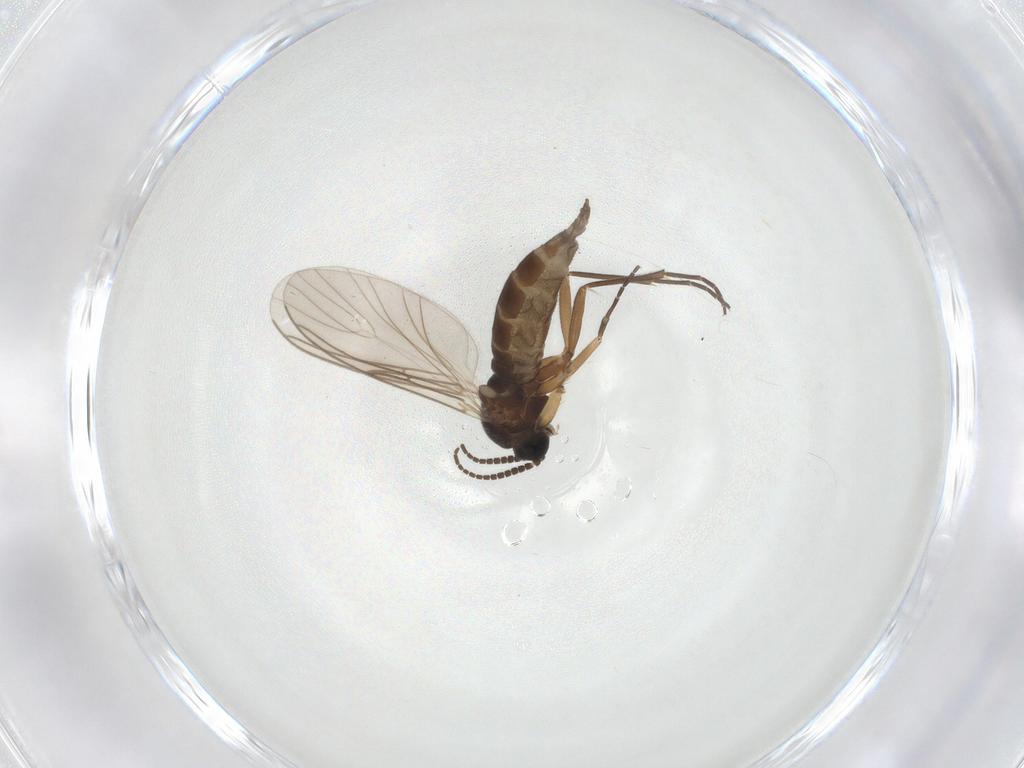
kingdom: Animalia
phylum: Arthropoda
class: Insecta
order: Diptera
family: Sciaridae
